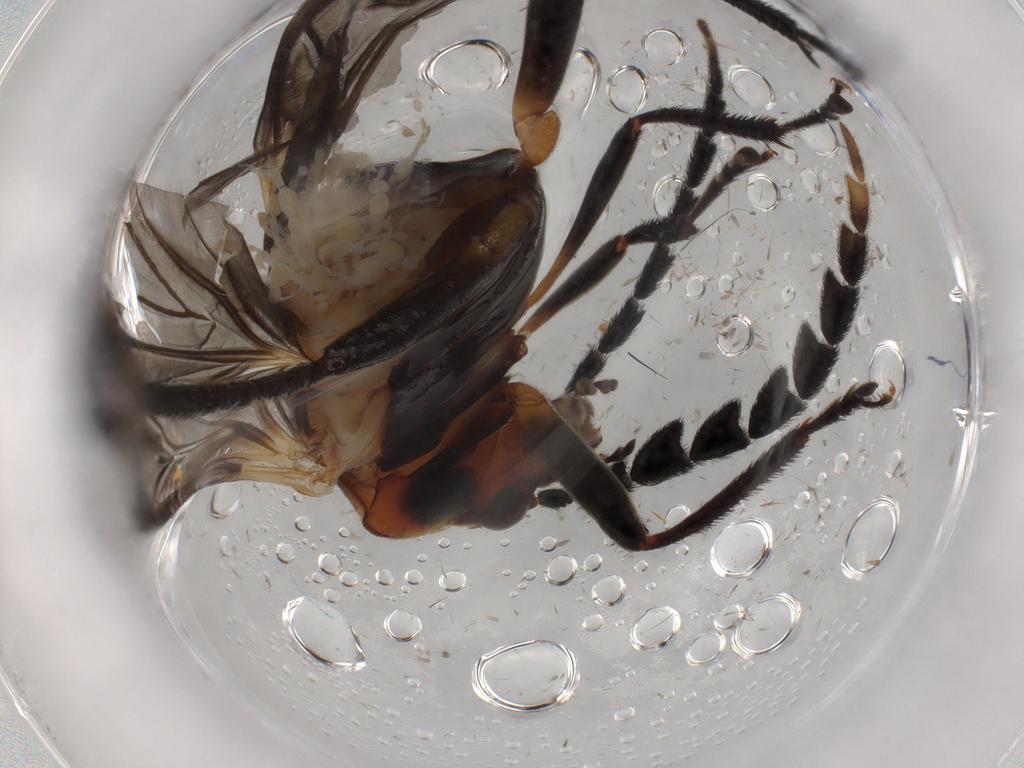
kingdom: Animalia
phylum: Arthropoda
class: Insecta
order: Coleoptera
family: Ptilodactylidae
